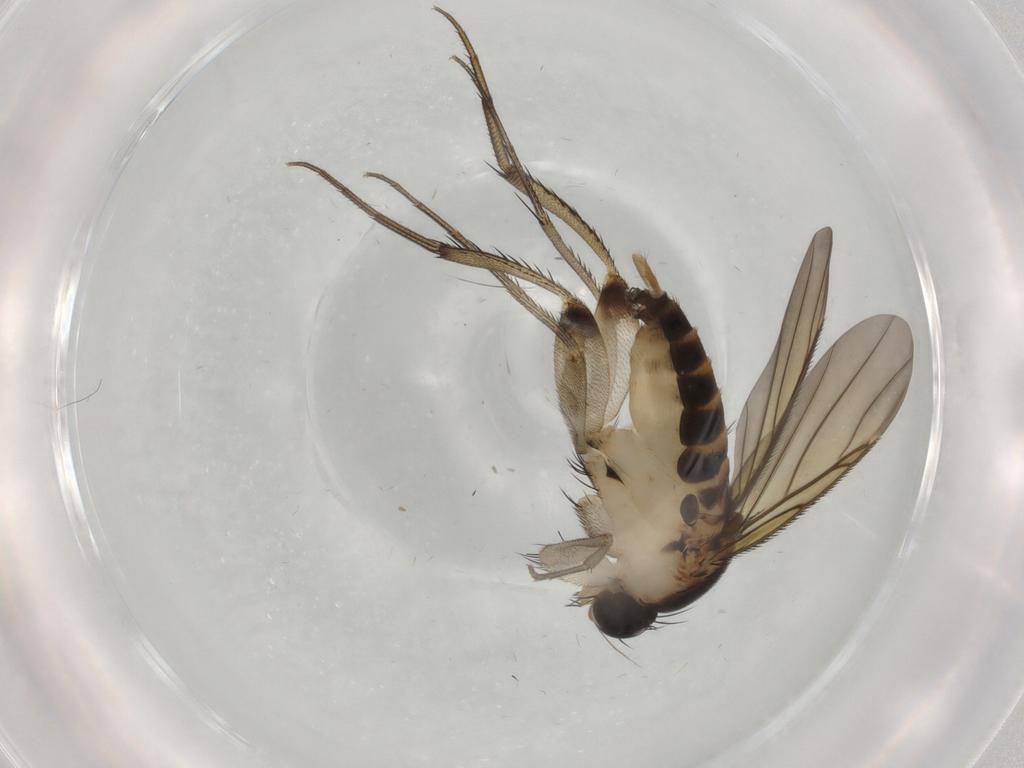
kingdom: Animalia
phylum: Arthropoda
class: Insecta
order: Diptera
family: Phoridae
